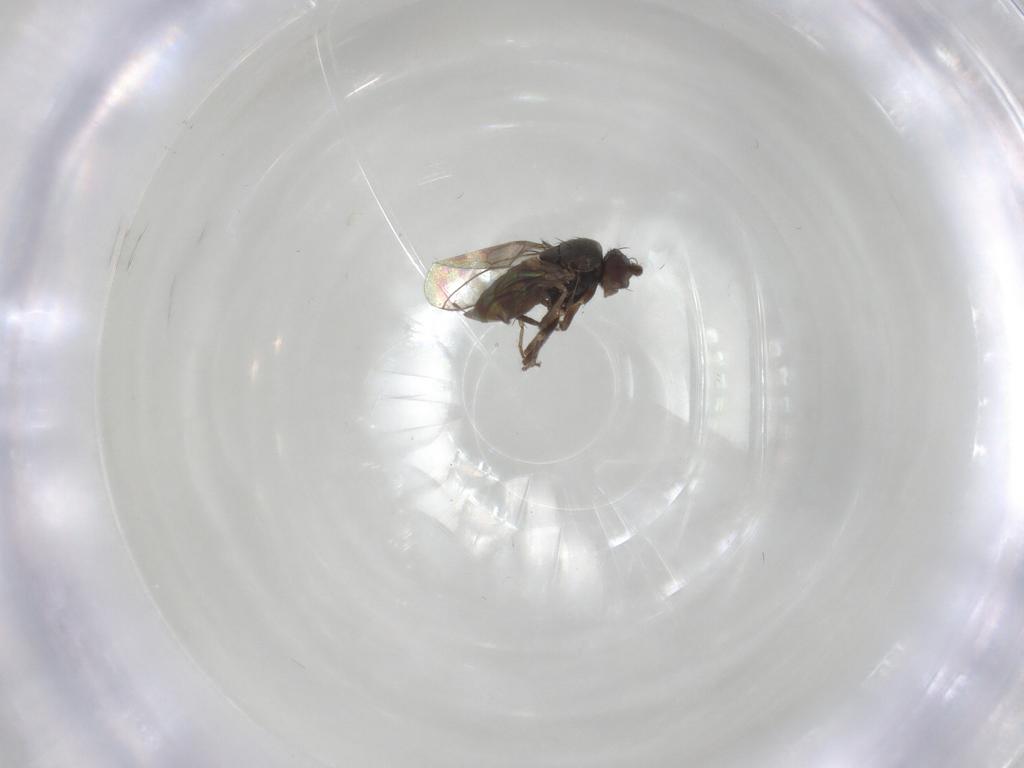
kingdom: Animalia
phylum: Arthropoda
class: Insecta
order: Diptera
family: Sphaeroceridae
